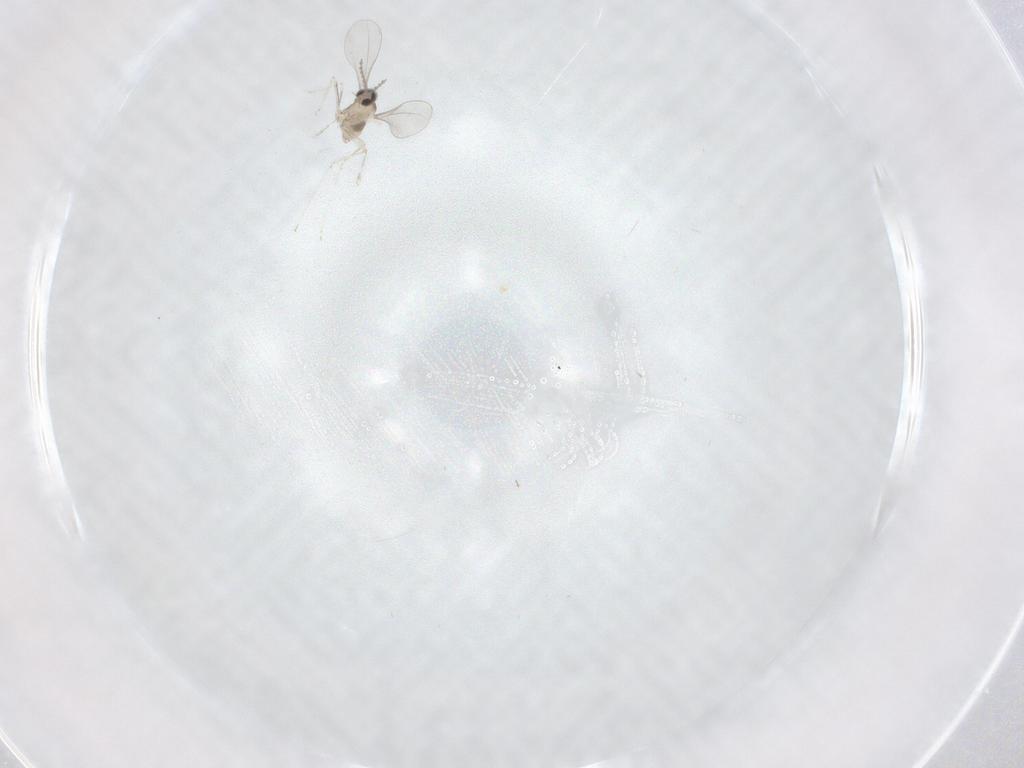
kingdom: Animalia
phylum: Arthropoda
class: Insecta
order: Diptera
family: Cecidomyiidae
